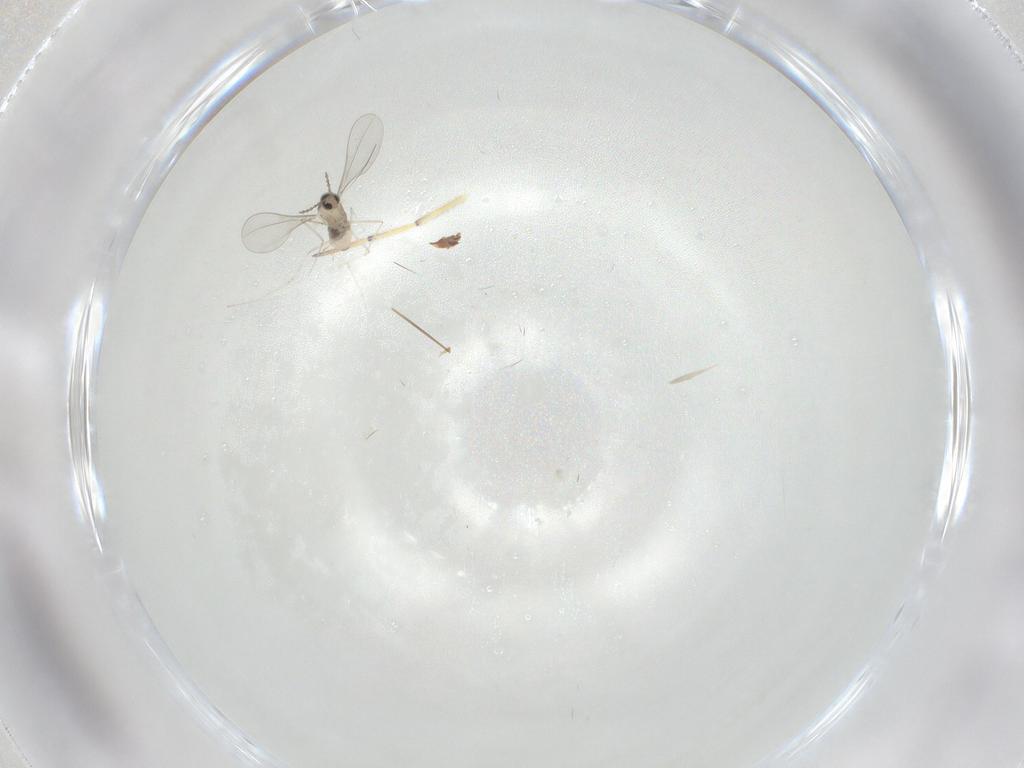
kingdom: Animalia
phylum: Arthropoda
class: Insecta
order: Diptera
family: Cecidomyiidae
